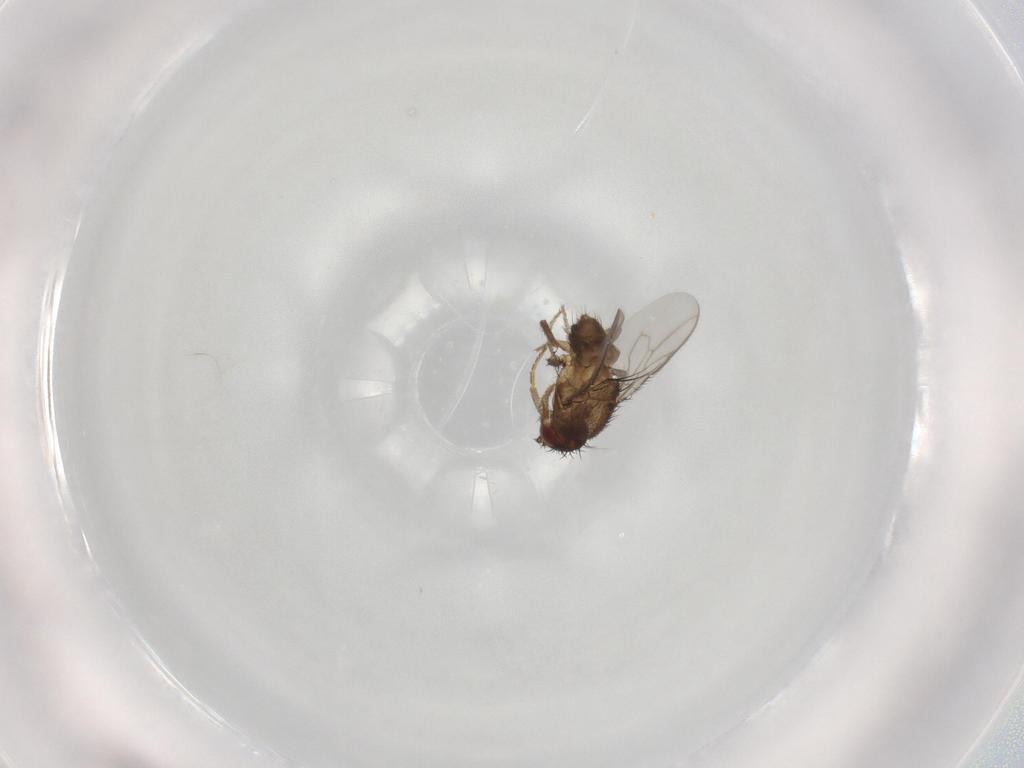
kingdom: Animalia
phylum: Arthropoda
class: Insecta
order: Diptera
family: Sphaeroceridae
